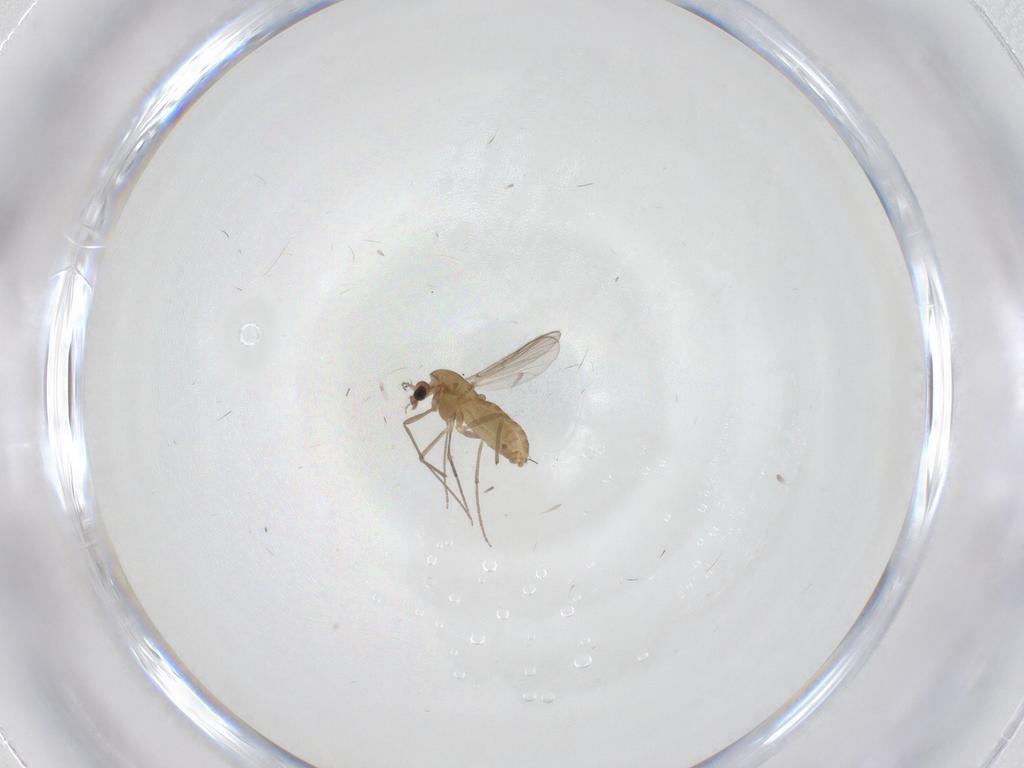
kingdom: Animalia
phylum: Arthropoda
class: Insecta
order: Diptera
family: Chironomidae
